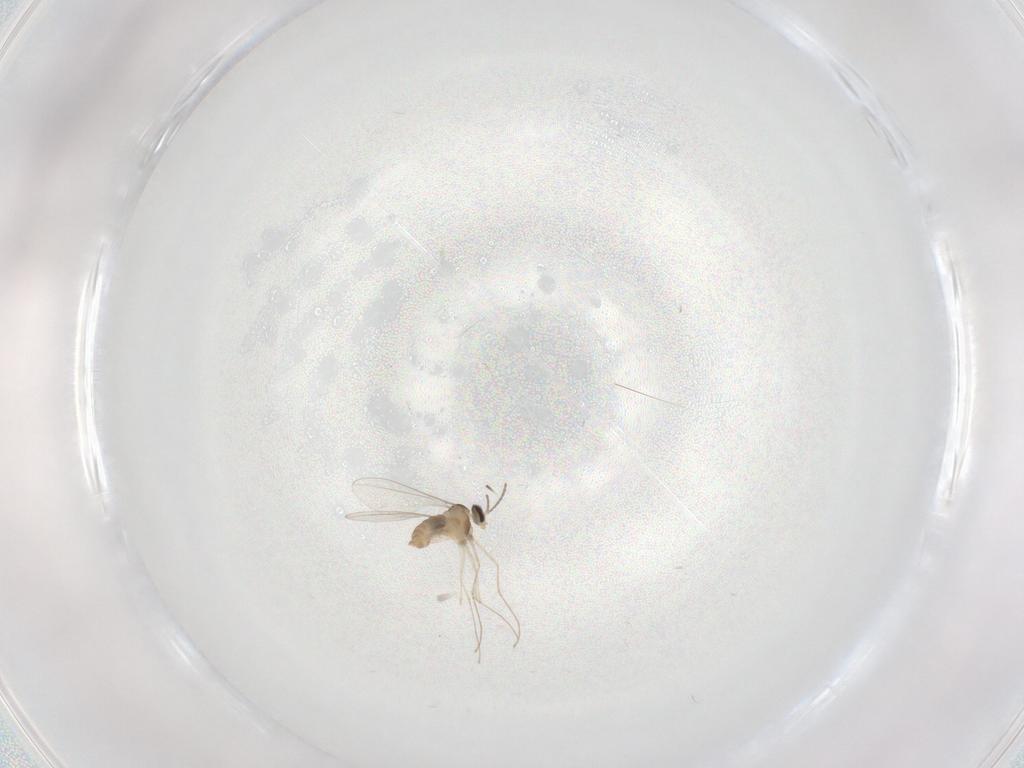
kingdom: Animalia
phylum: Arthropoda
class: Insecta
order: Diptera
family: Cecidomyiidae
